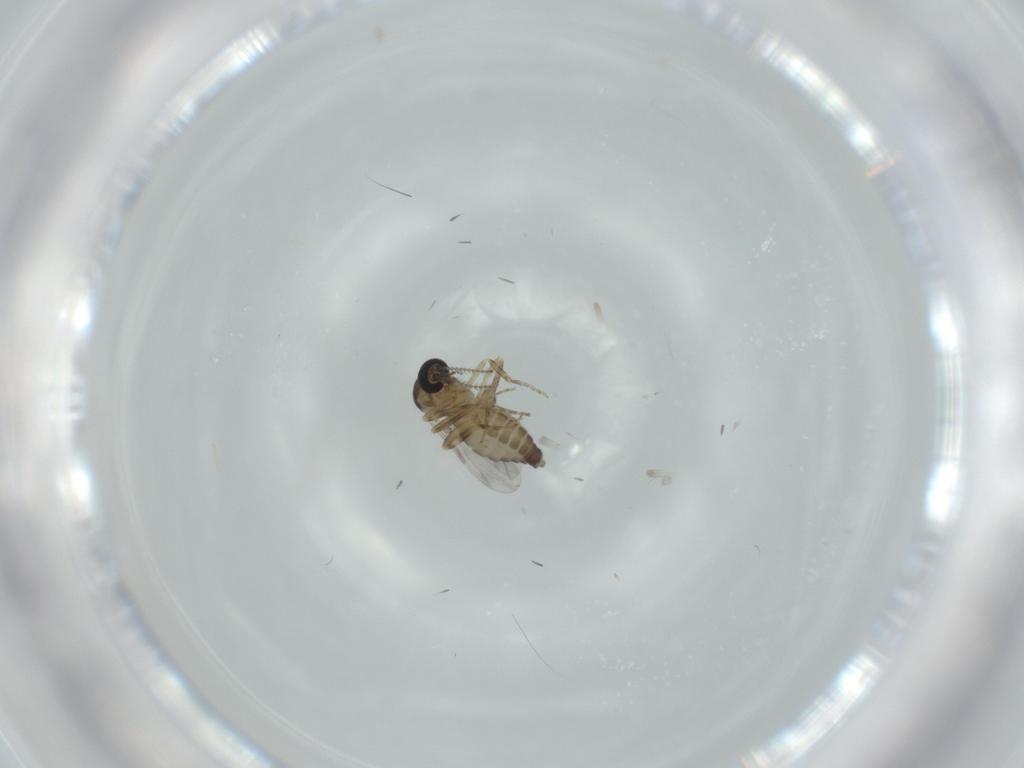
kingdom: Animalia
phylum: Arthropoda
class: Insecta
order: Diptera
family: Ceratopogonidae
